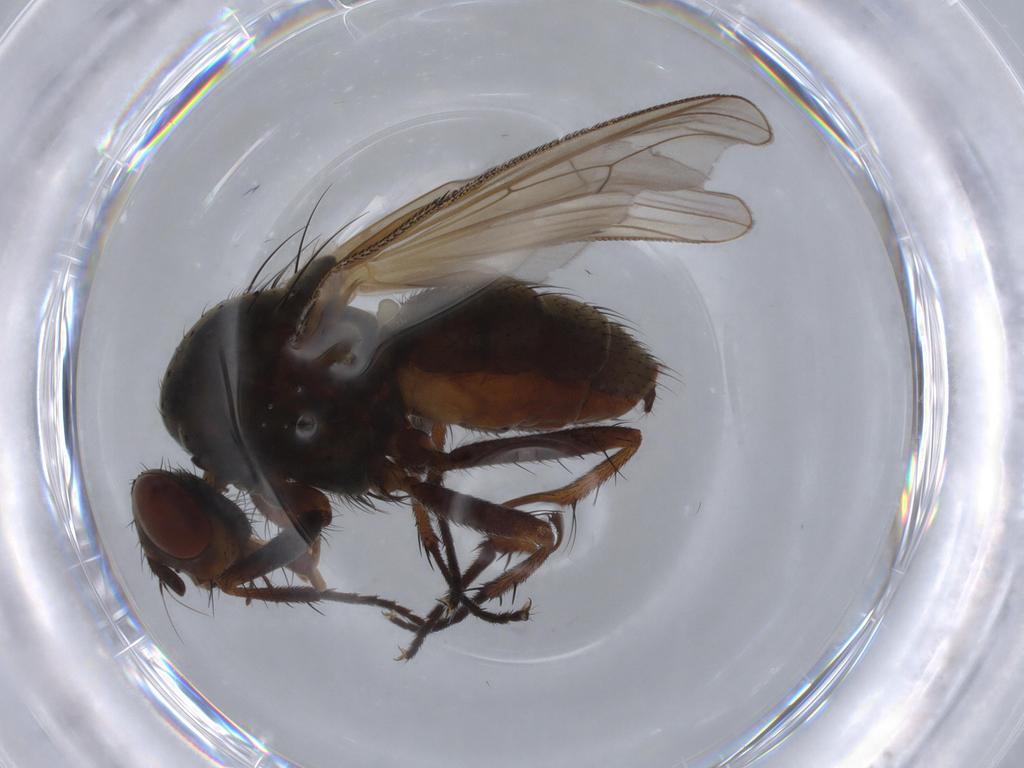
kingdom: Animalia
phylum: Arthropoda
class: Insecta
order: Diptera
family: Anthomyiidae
